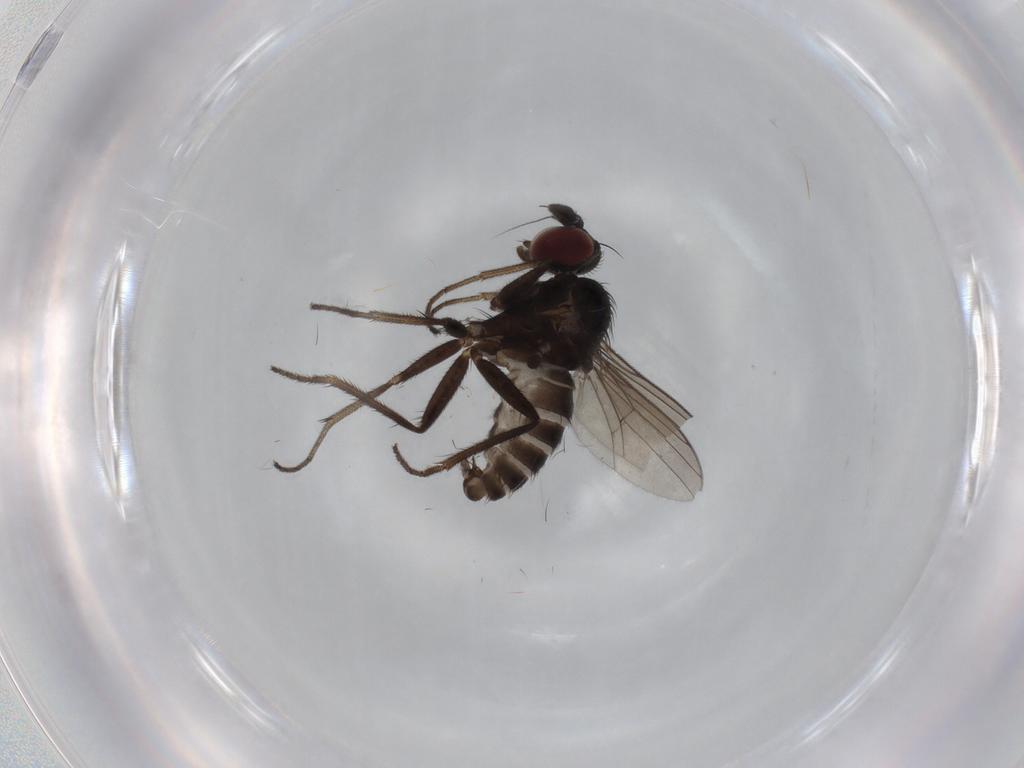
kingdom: Animalia
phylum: Arthropoda
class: Insecta
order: Diptera
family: Dolichopodidae
